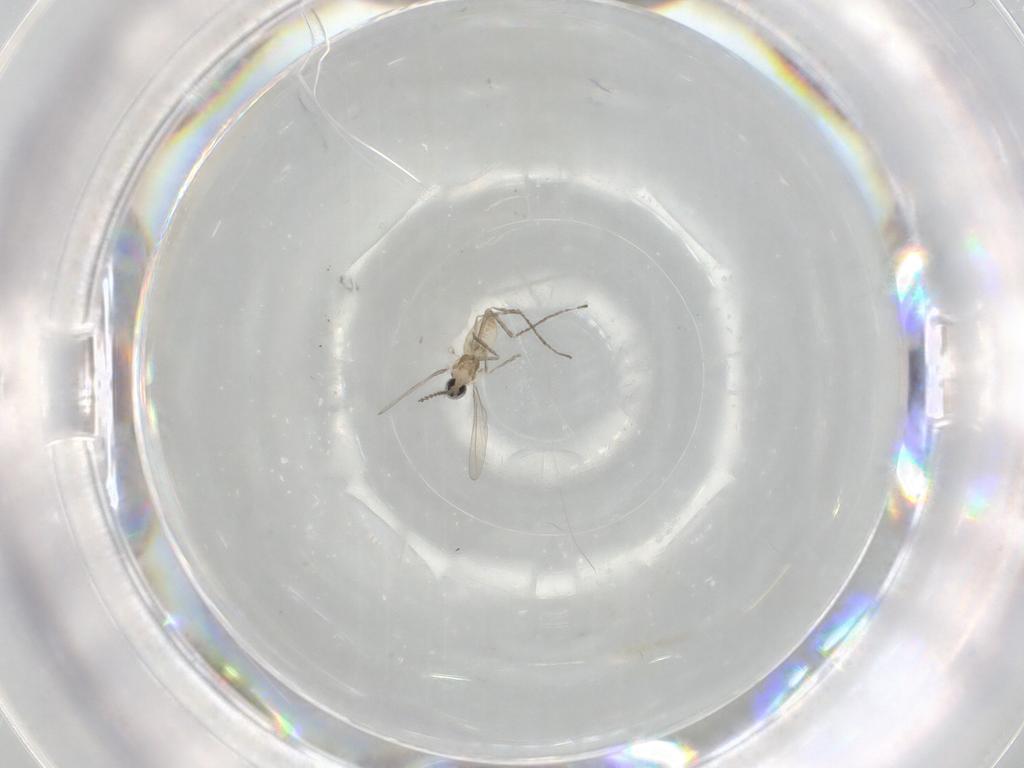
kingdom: Animalia
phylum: Arthropoda
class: Insecta
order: Diptera
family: Cecidomyiidae
